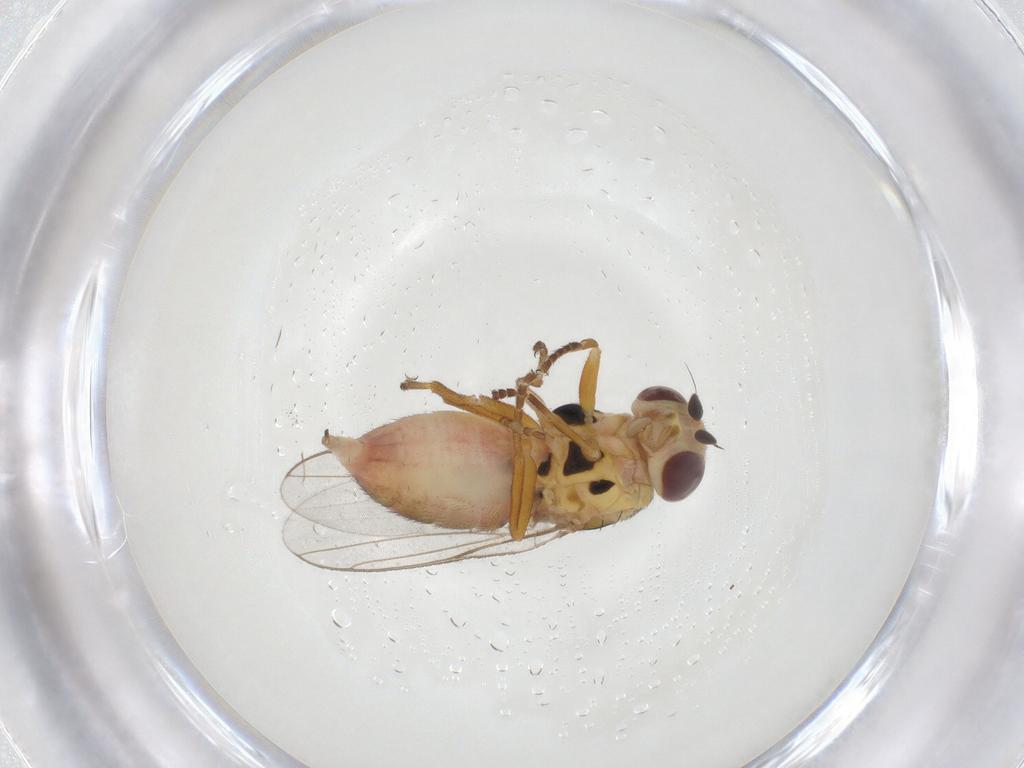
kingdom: Animalia
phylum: Arthropoda
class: Insecta
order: Diptera
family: Chloropidae
